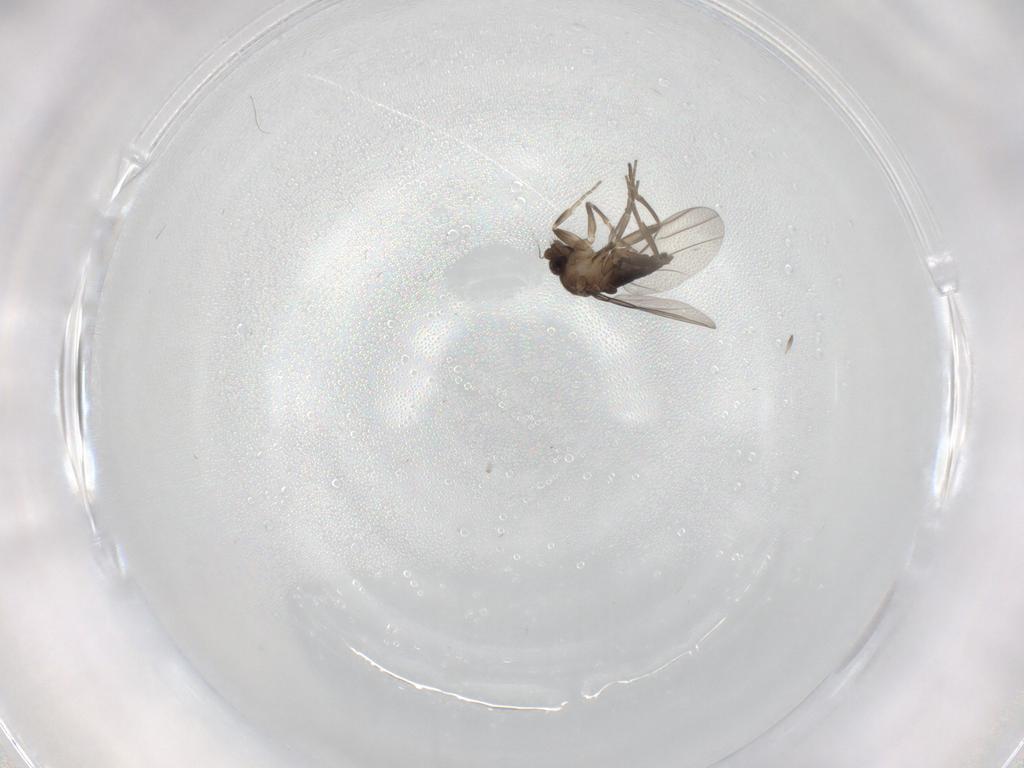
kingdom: Animalia
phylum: Arthropoda
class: Insecta
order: Diptera
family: Phoridae
